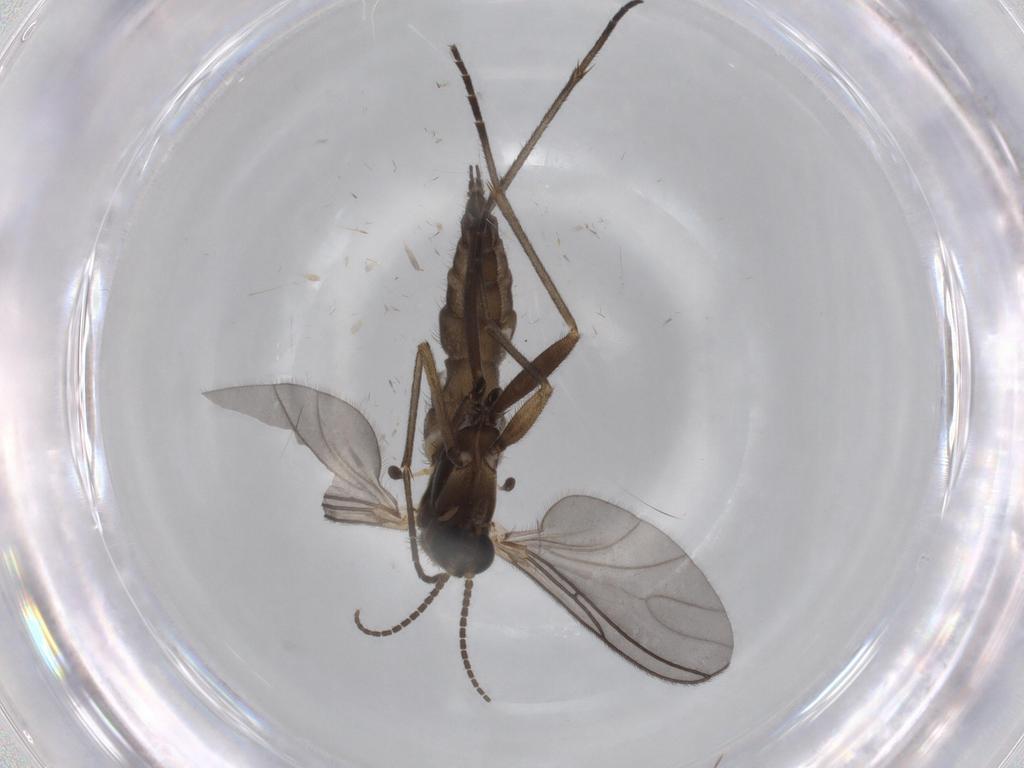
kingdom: Animalia
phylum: Arthropoda
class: Insecta
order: Diptera
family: Sciaridae
